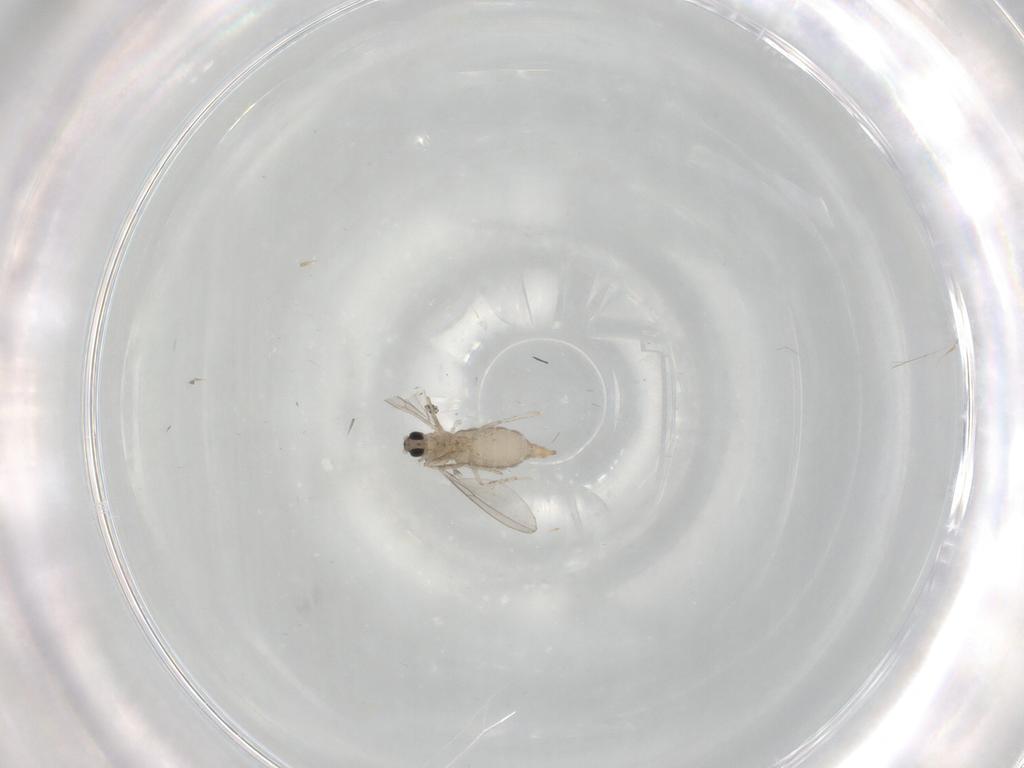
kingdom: Animalia
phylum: Arthropoda
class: Insecta
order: Diptera
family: Cecidomyiidae
